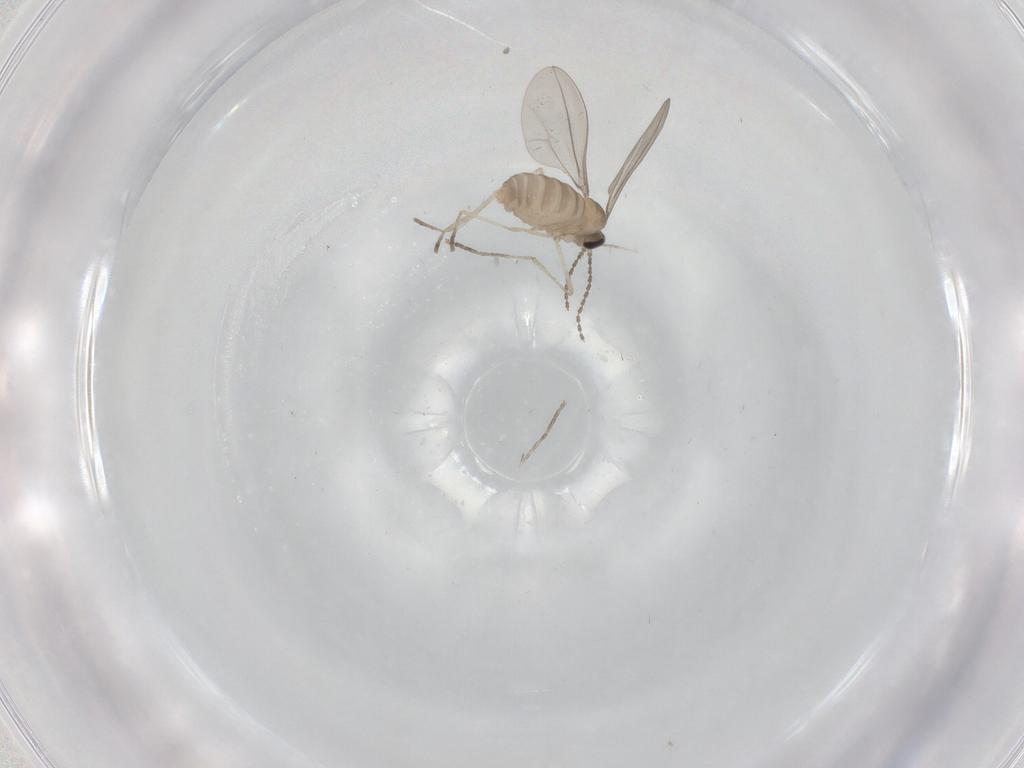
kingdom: Animalia
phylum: Arthropoda
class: Insecta
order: Diptera
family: Cecidomyiidae
